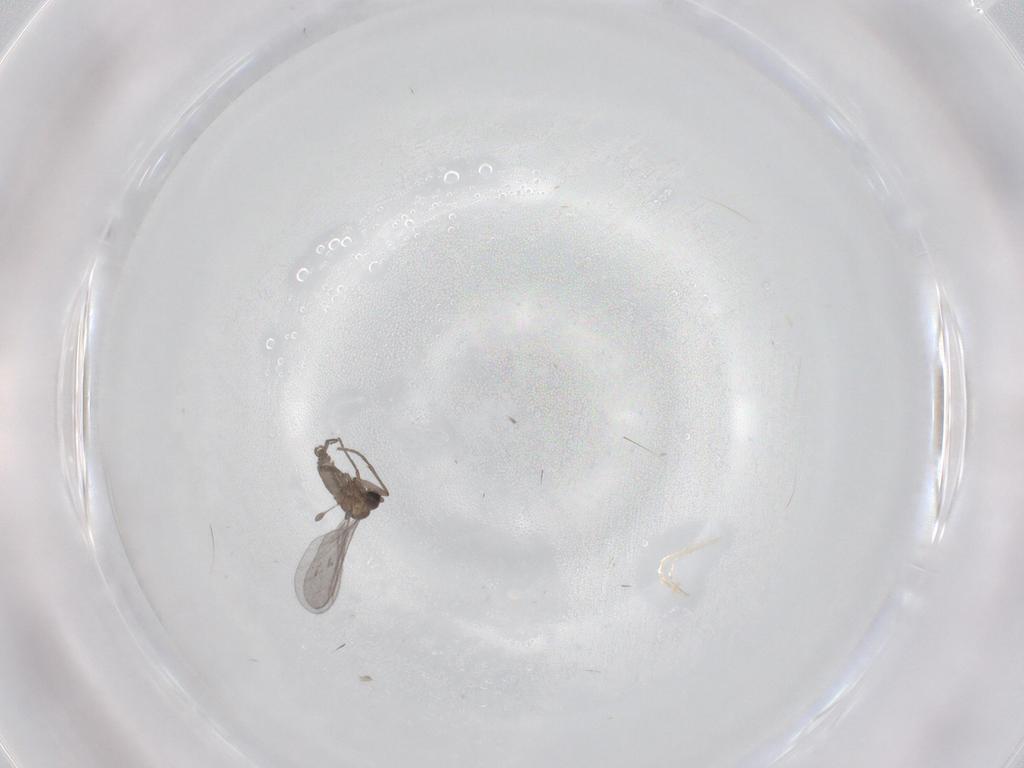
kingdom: Animalia
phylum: Arthropoda
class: Insecta
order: Diptera
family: Sciaridae
